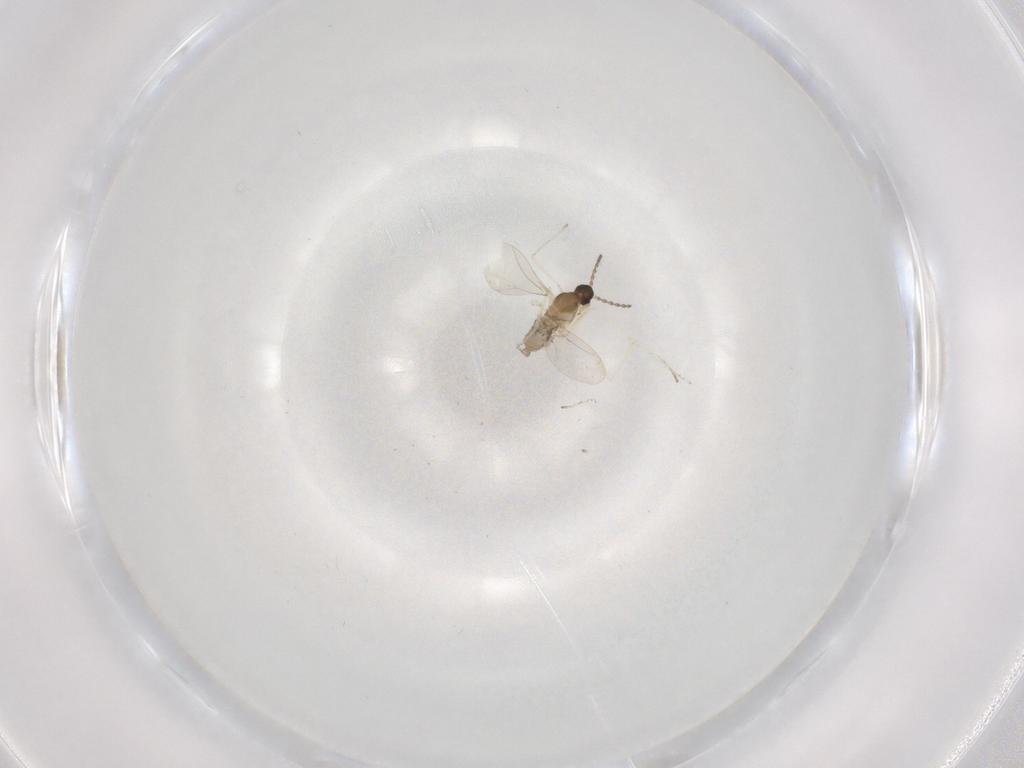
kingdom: Animalia
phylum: Arthropoda
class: Insecta
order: Diptera
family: Cecidomyiidae
